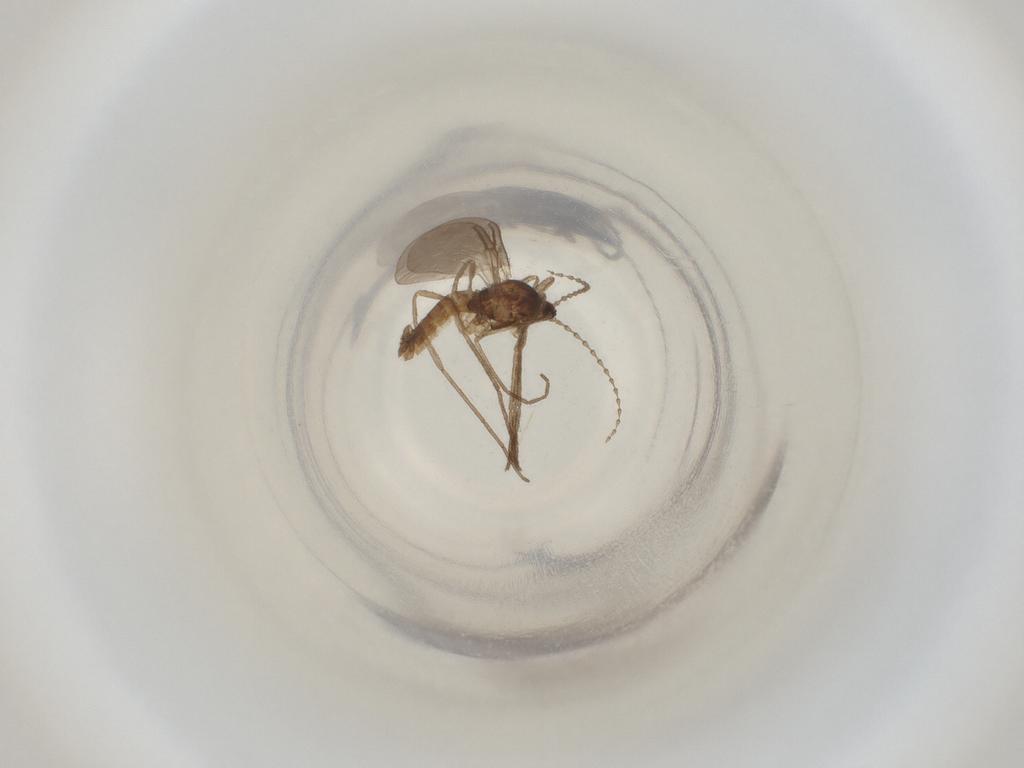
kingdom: Animalia
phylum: Arthropoda
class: Insecta
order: Diptera
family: Cecidomyiidae
